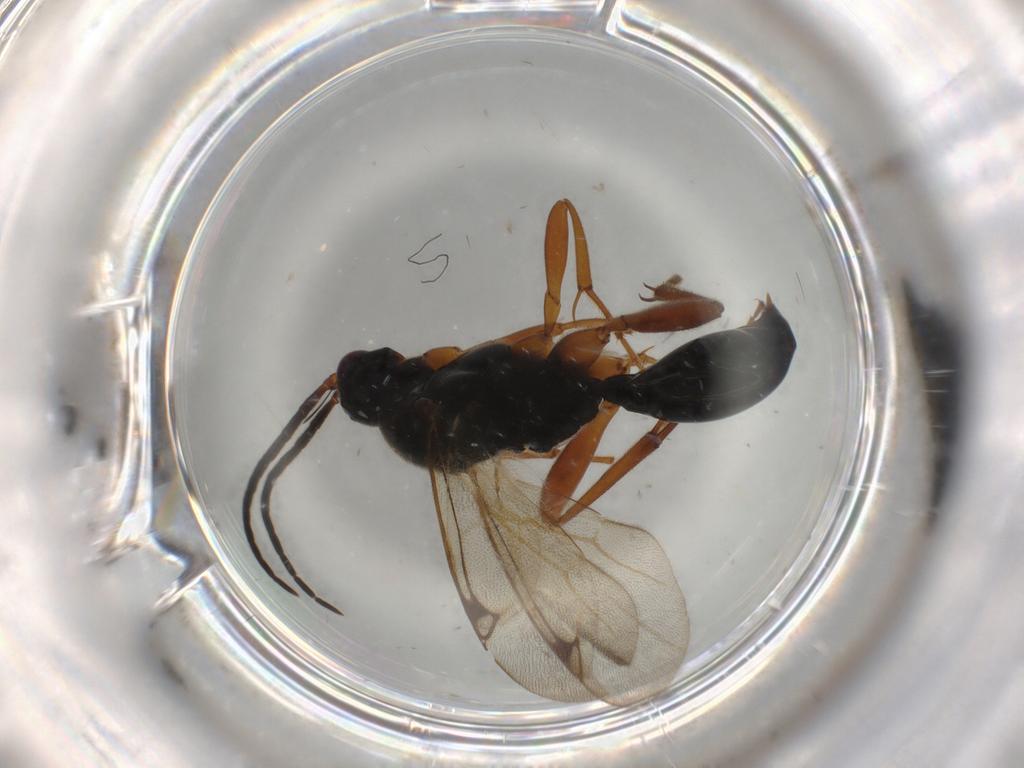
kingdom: Animalia
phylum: Arthropoda
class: Insecta
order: Hymenoptera
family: Proctotrupidae
